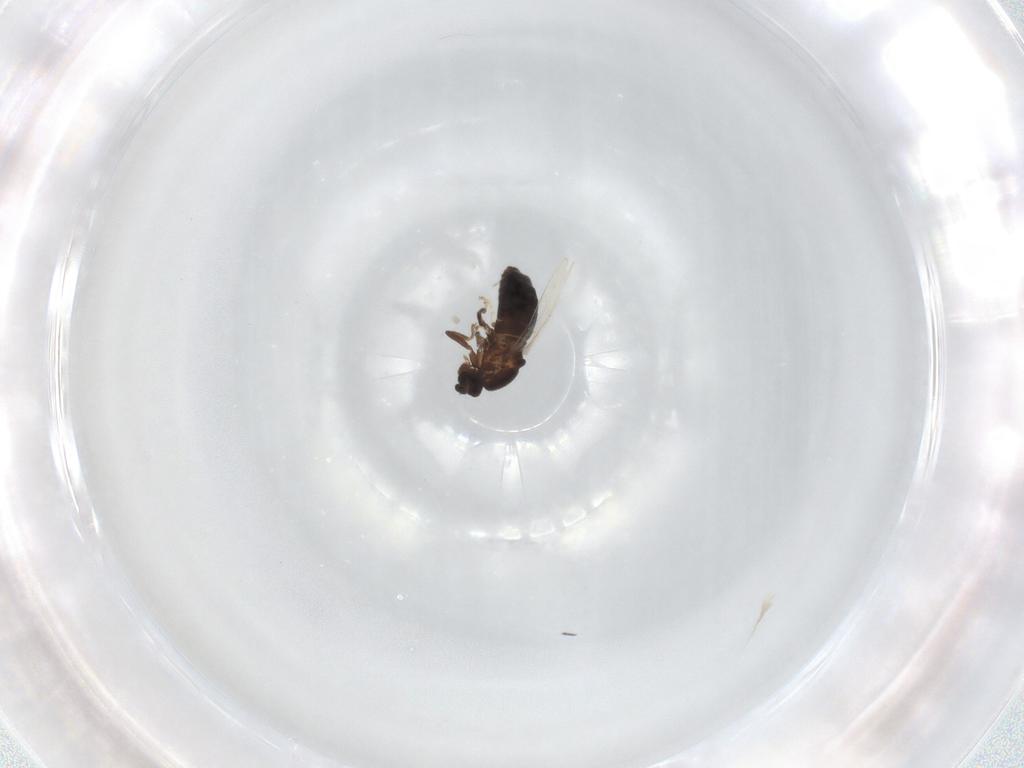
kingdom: Animalia
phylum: Arthropoda
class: Insecta
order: Diptera
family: Scatopsidae
